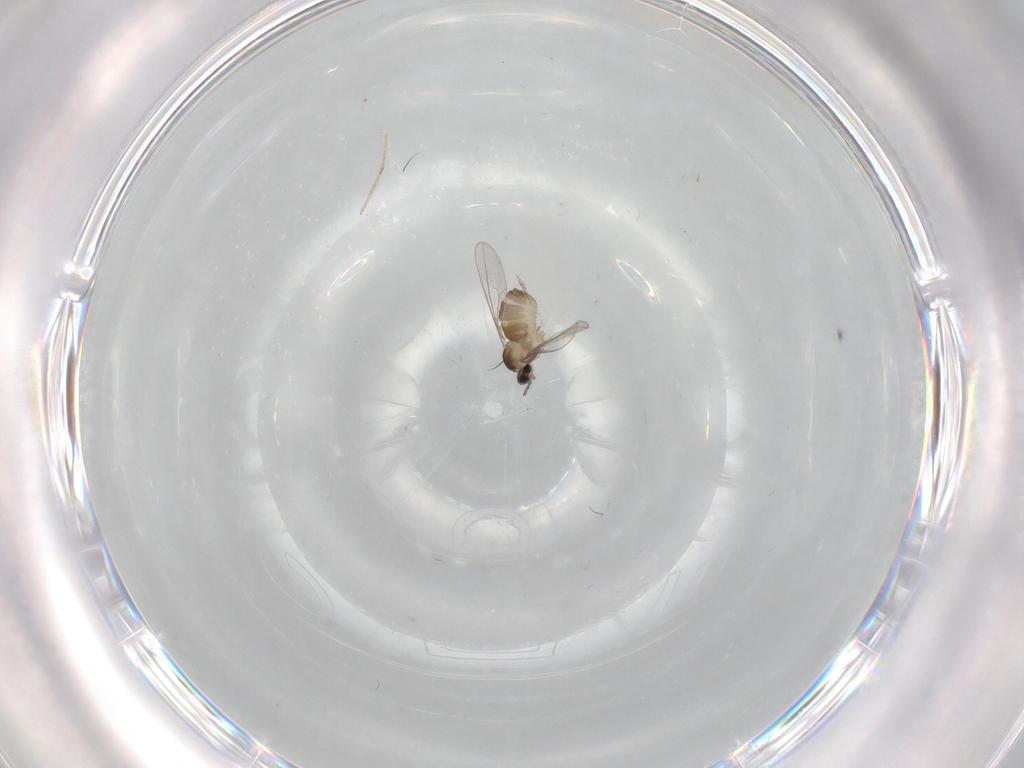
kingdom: Animalia
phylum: Arthropoda
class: Insecta
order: Diptera
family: Cecidomyiidae
